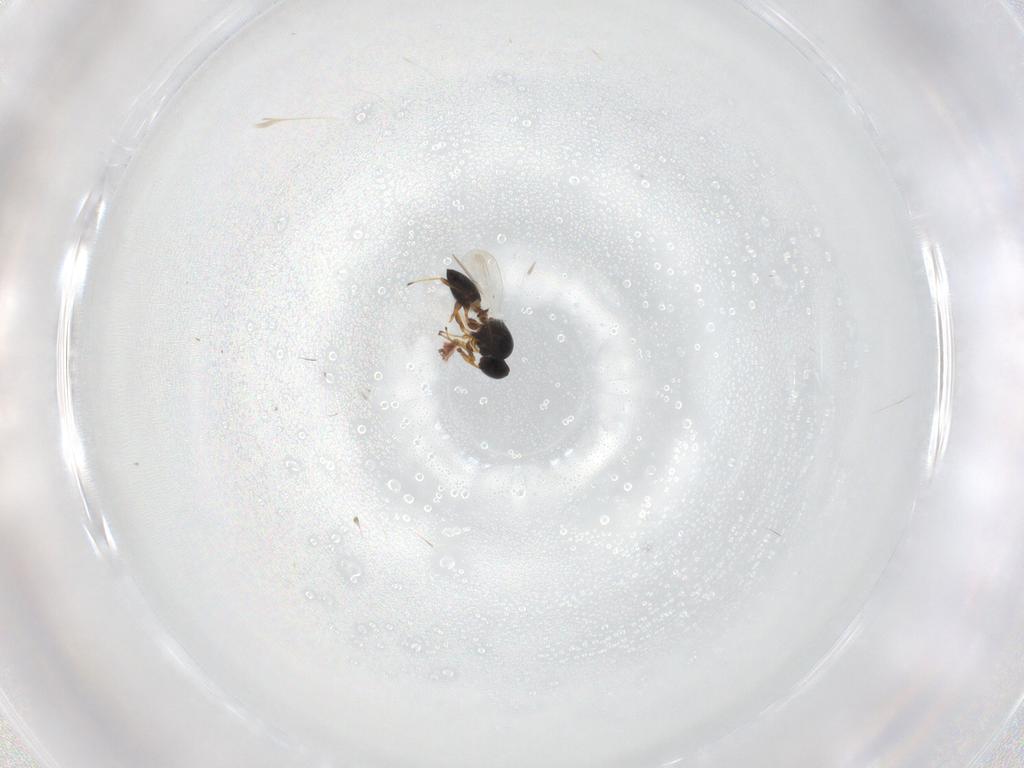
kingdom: Animalia
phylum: Arthropoda
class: Insecta
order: Hymenoptera
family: Platygastridae
